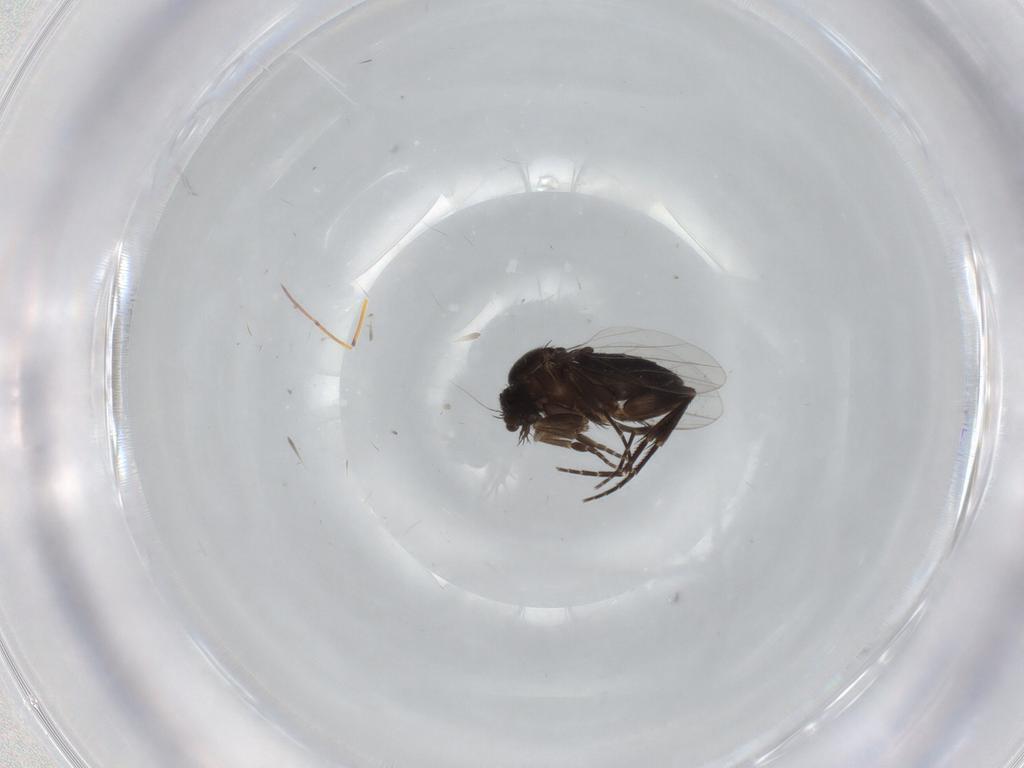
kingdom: Animalia
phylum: Arthropoda
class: Insecta
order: Diptera
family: Phoridae
